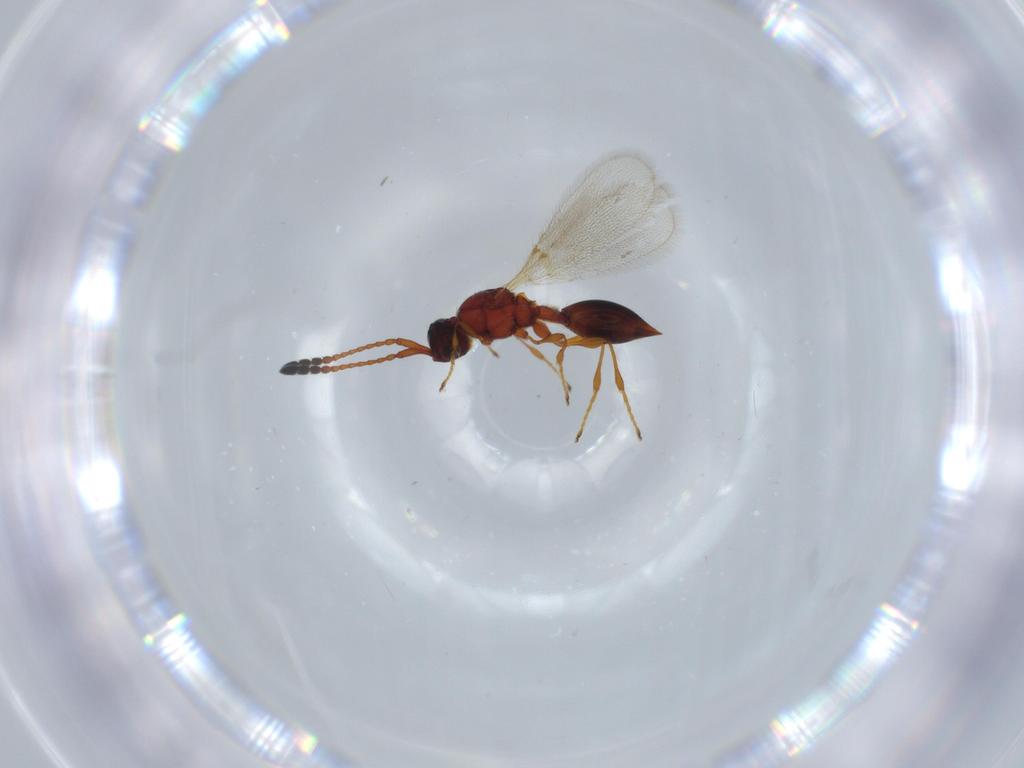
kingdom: Animalia
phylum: Arthropoda
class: Insecta
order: Hymenoptera
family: Diapriidae
